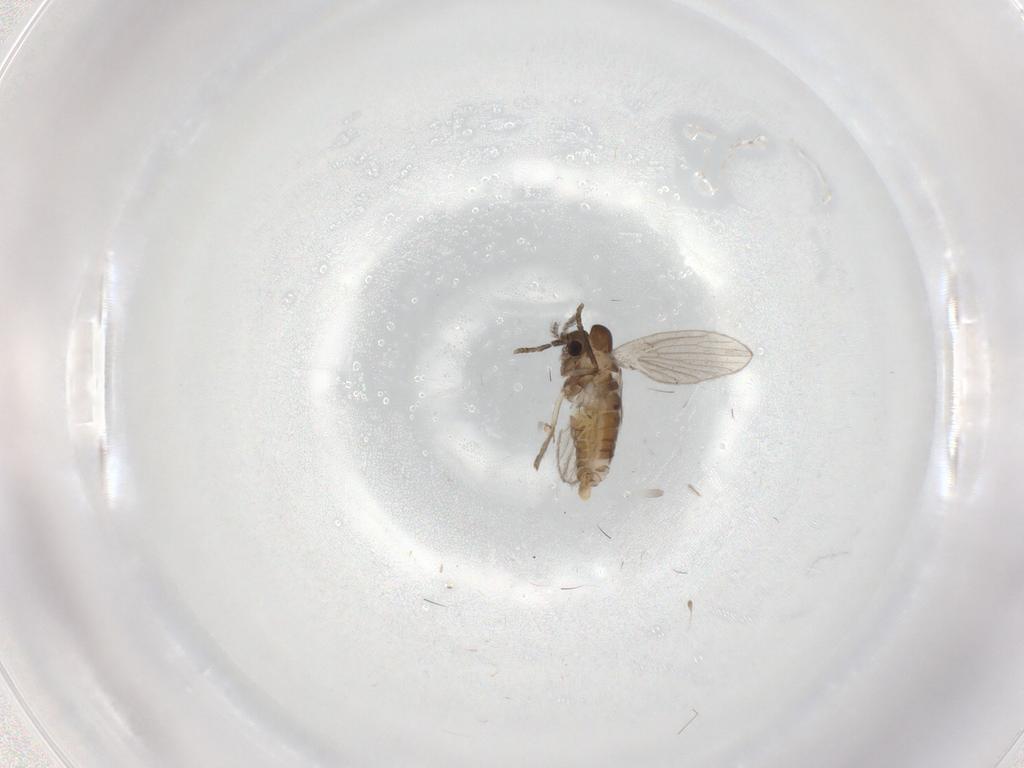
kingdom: Animalia
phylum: Arthropoda
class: Insecta
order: Diptera
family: Psychodidae
